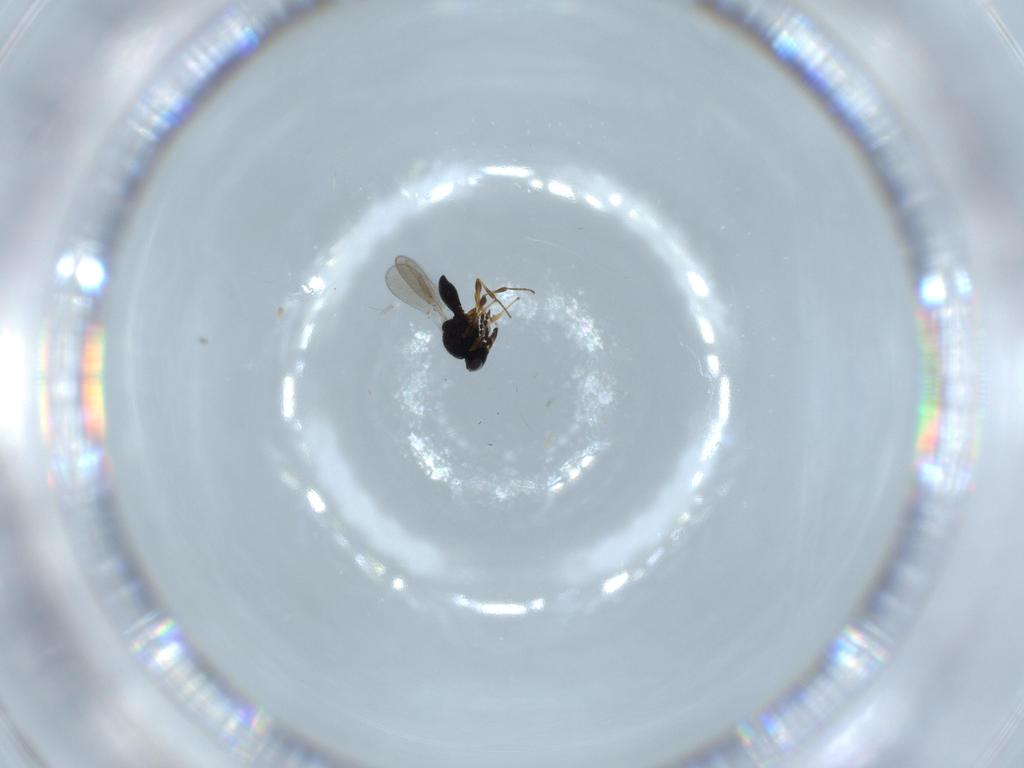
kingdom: Animalia
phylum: Arthropoda
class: Insecta
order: Hymenoptera
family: Platygastridae
